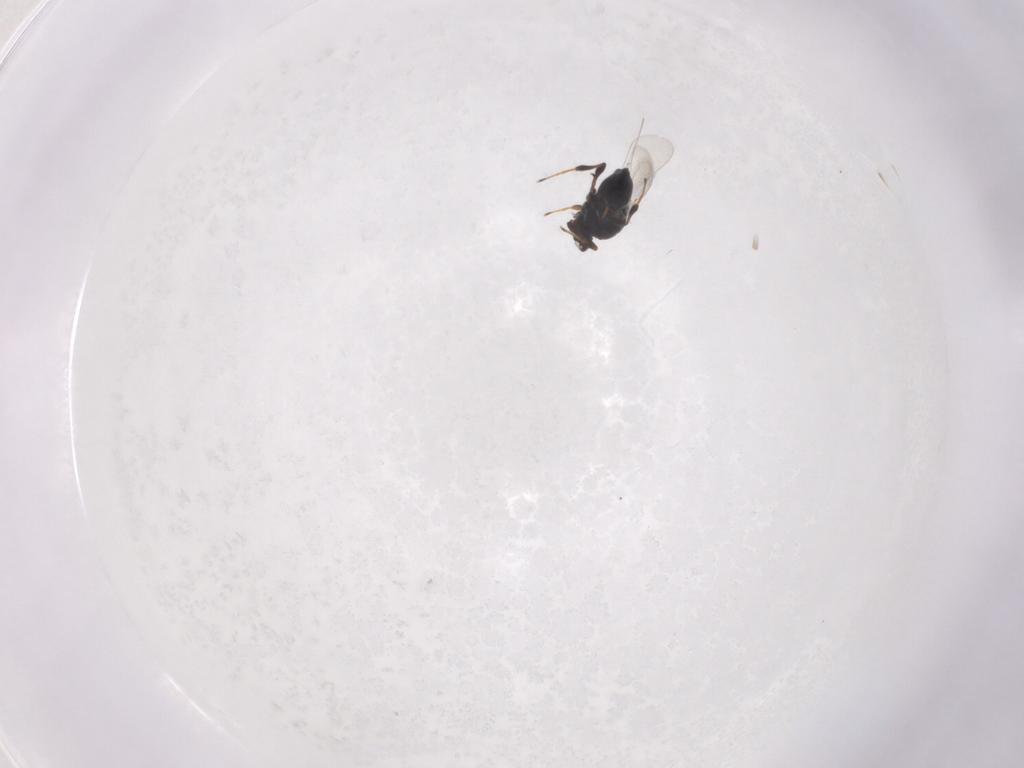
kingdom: Animalia
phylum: Arthropoda
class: Insecta
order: Hymenoptera
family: Platygastridae
